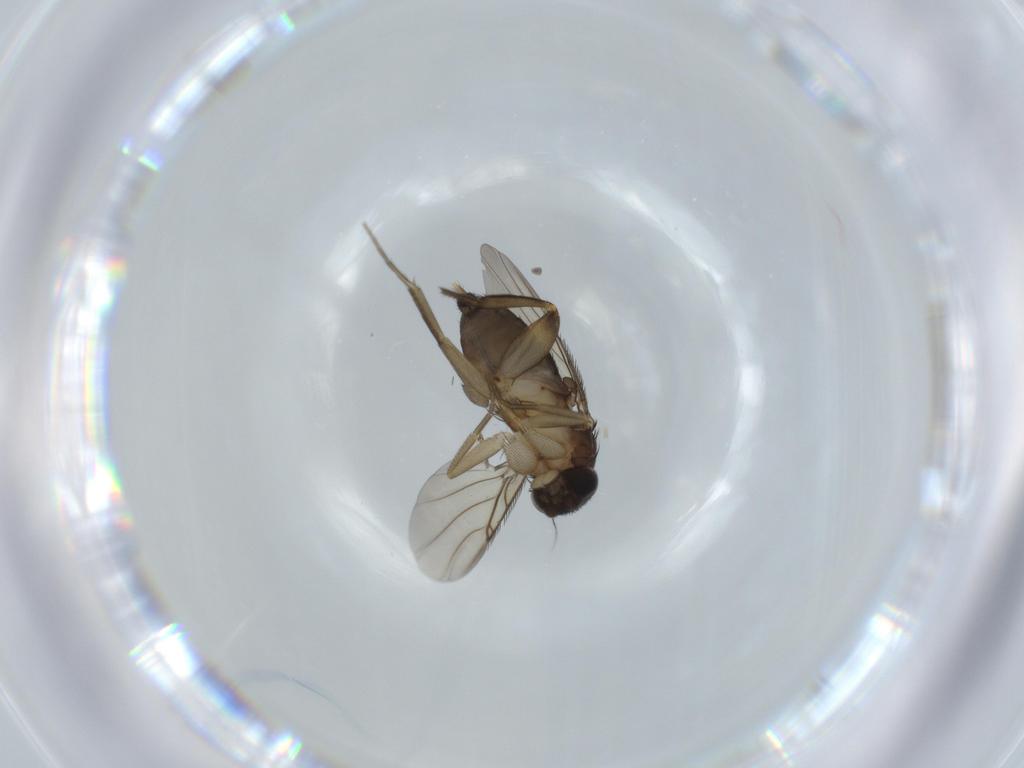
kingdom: Animalia
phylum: Arthropoda
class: Insecta
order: Diptera
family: Phoridae
